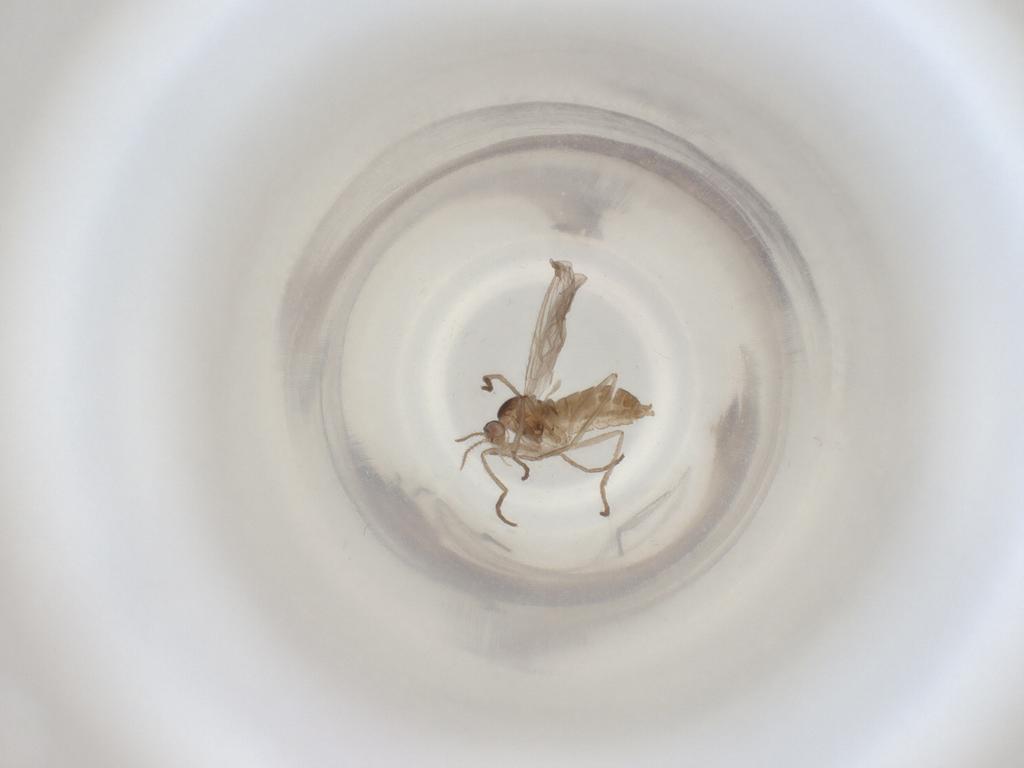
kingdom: Animalia
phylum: Arthropoda
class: Insecta
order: Diptera
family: Cecidomyiidae
